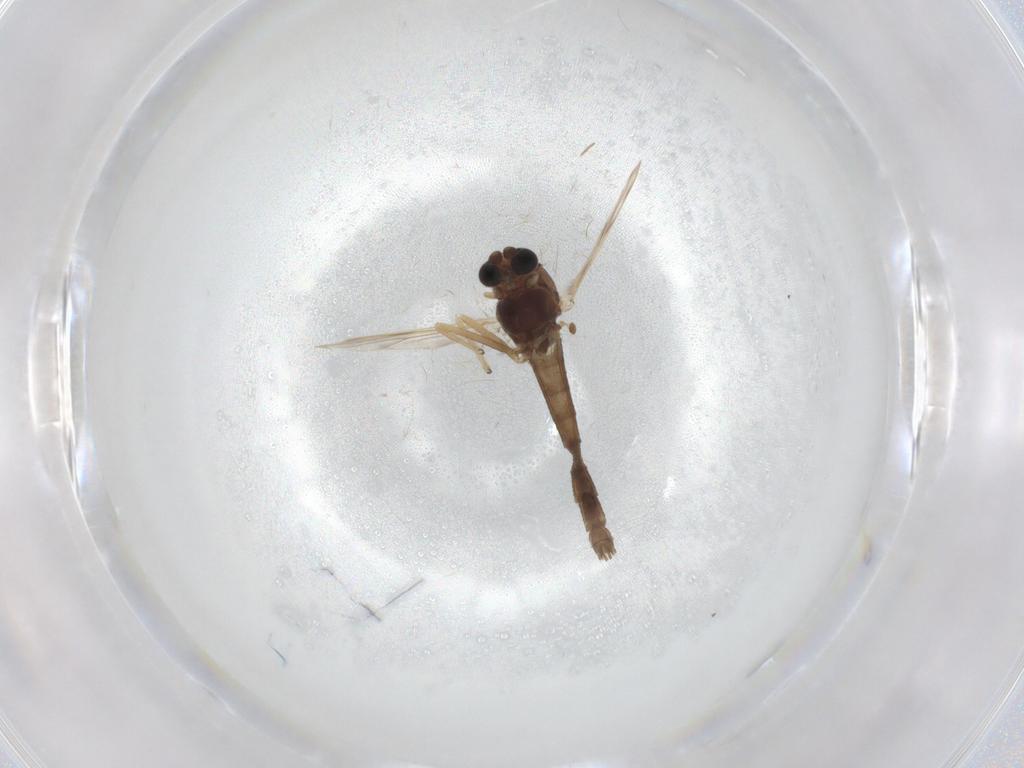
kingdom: Animalia
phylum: Arthropoda
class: Insecta
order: Diptera
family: Chironomidae
